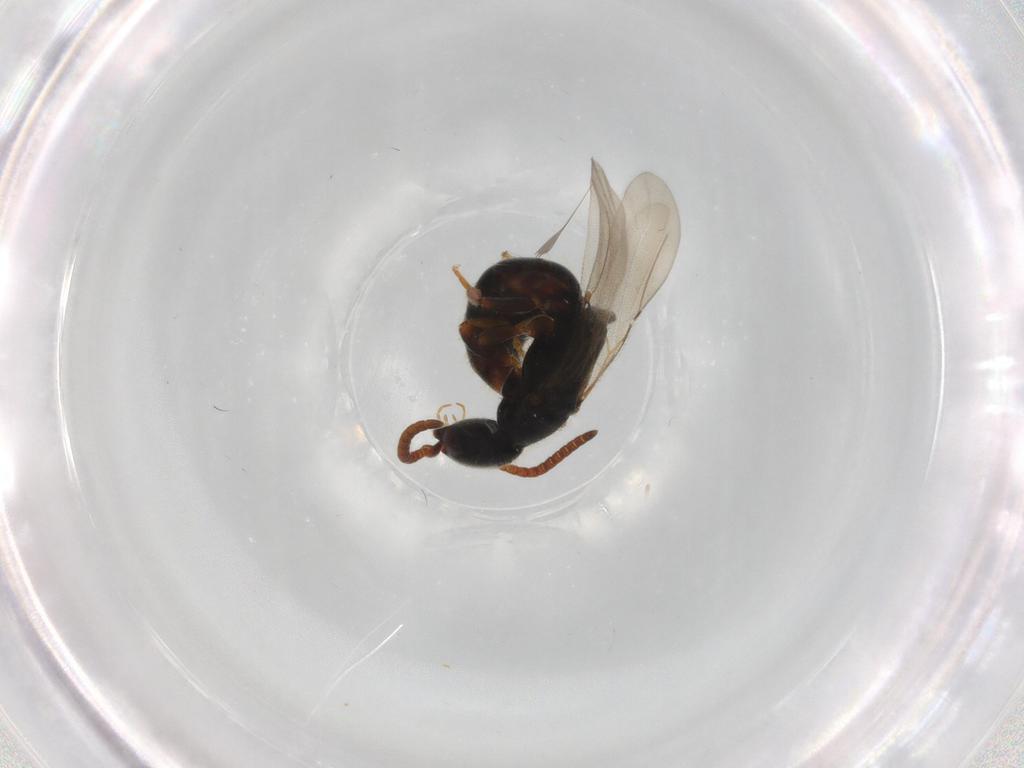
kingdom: Animalia
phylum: Arthropoda
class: Insecta
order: Hymenoptera
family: Bethylidae
